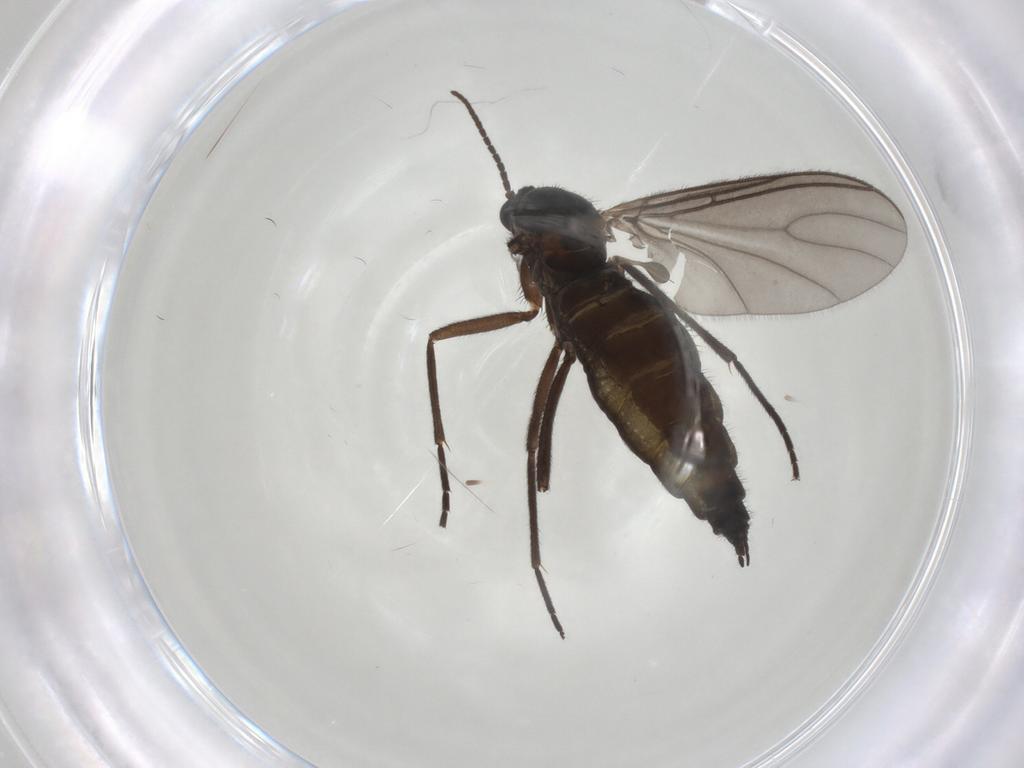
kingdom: Animalia
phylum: Arthropoda
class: Insecta
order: Diptera
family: Sciaridae
